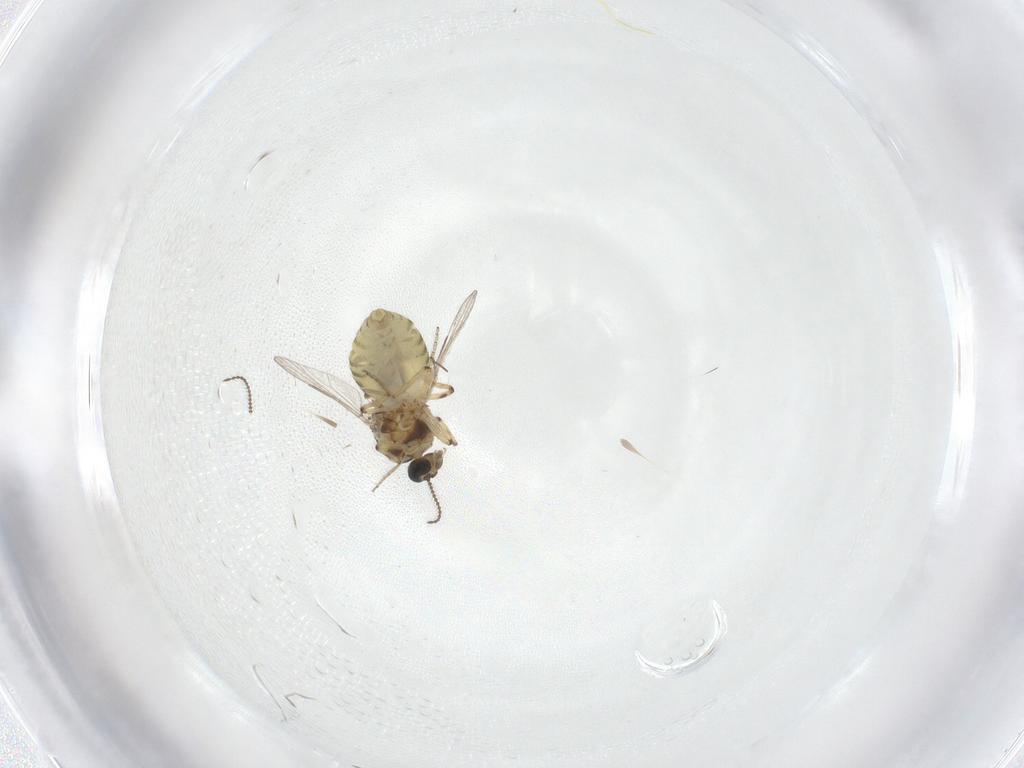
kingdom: Animalia
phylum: Arthropoda
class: Insecta
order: Diptera
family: Ceratopogonidae
